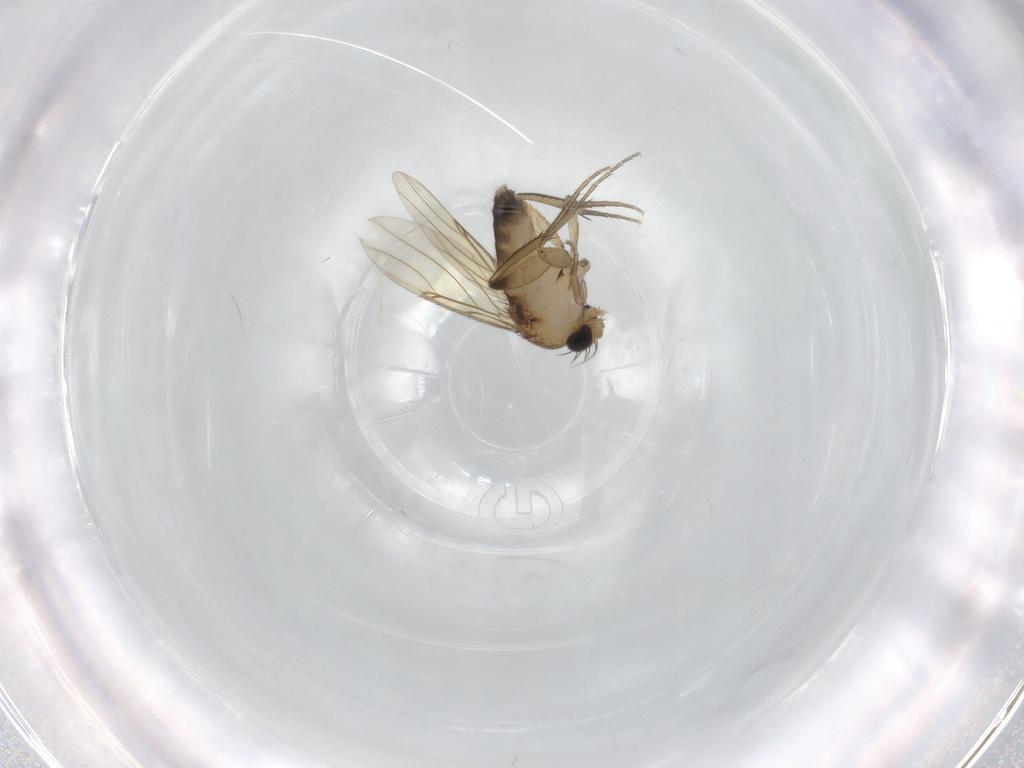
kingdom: Animalia
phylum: Arthropoda
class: Insecta
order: Diptera
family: Phoridae
